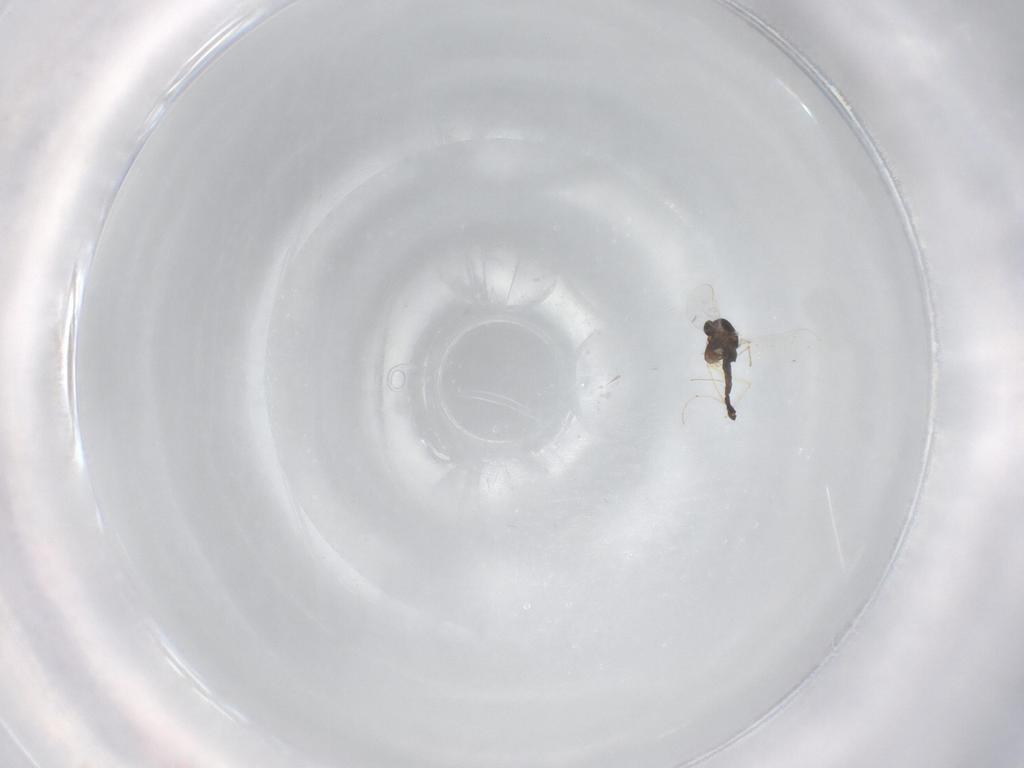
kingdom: Animalia
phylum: Arthropoda
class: Insecta
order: Diptera
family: Chironomidae
